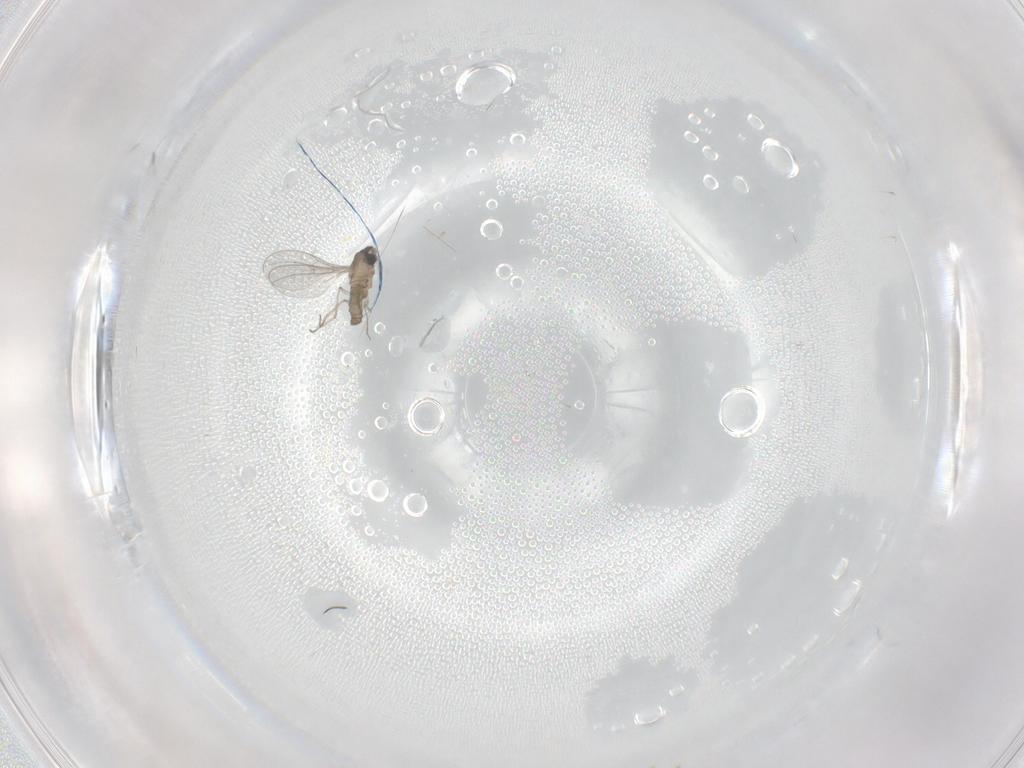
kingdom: Animalia
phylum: Arthropoda
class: Insecta
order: Diptera
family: Cecidomyiidae
